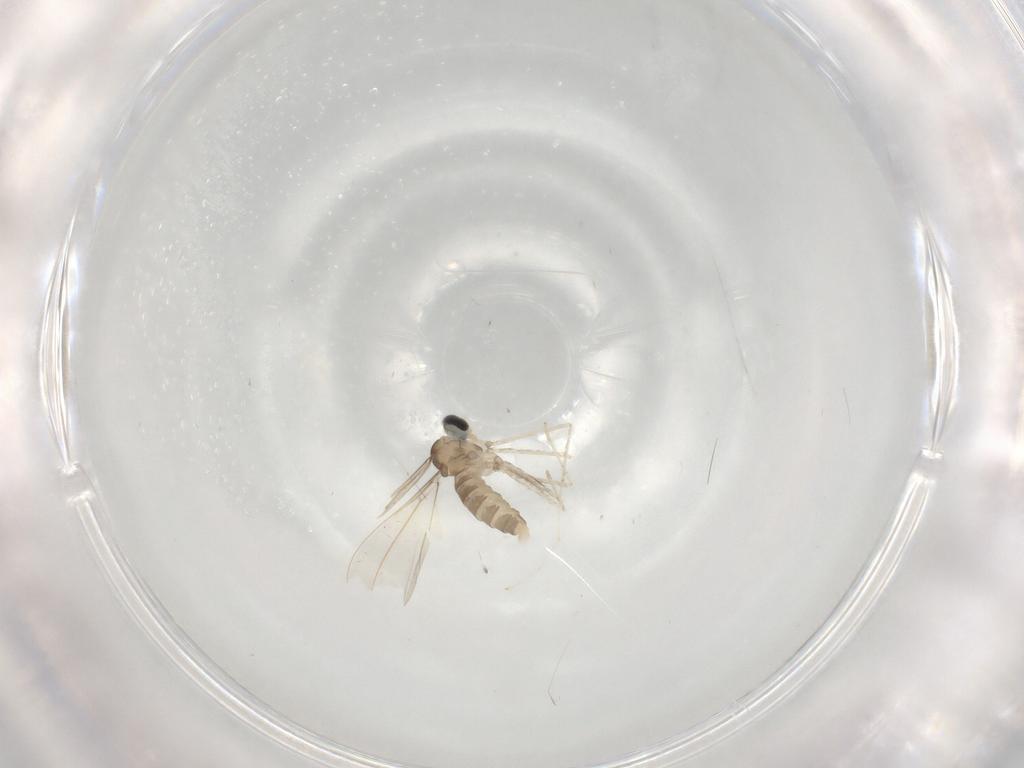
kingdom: Animalia
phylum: Arthropoda
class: Insecta
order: Diptera
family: Cecidomyiidae
